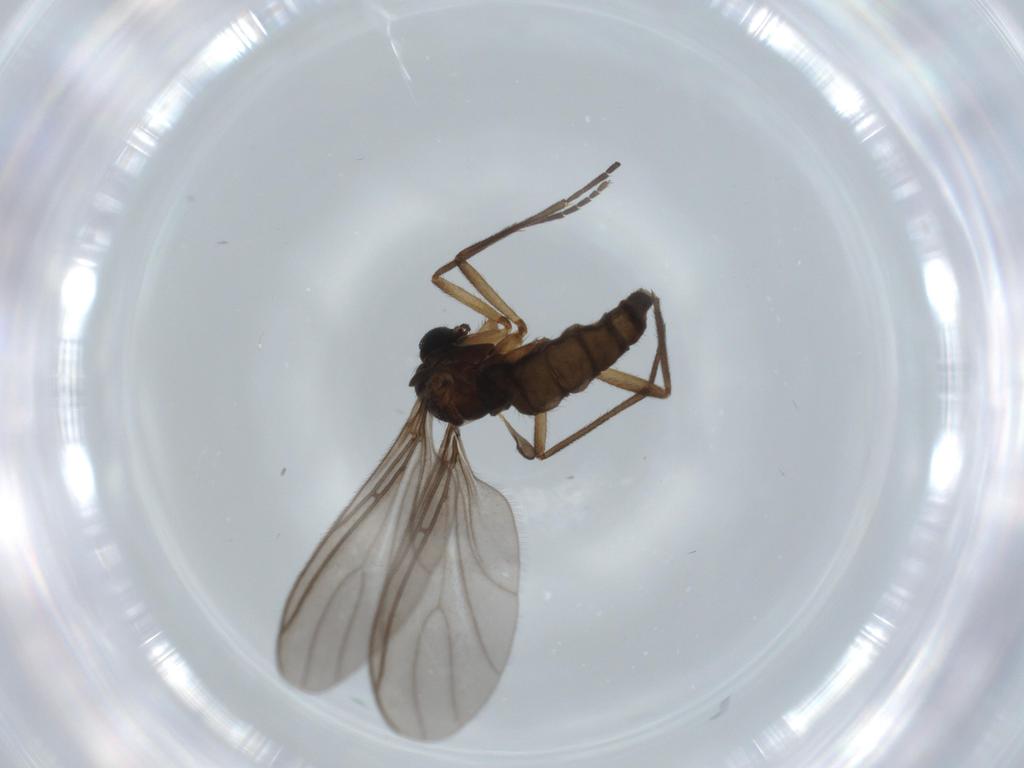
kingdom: Animalia
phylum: Arthropoda
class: Insecta
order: Diptera
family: Sciaridae
